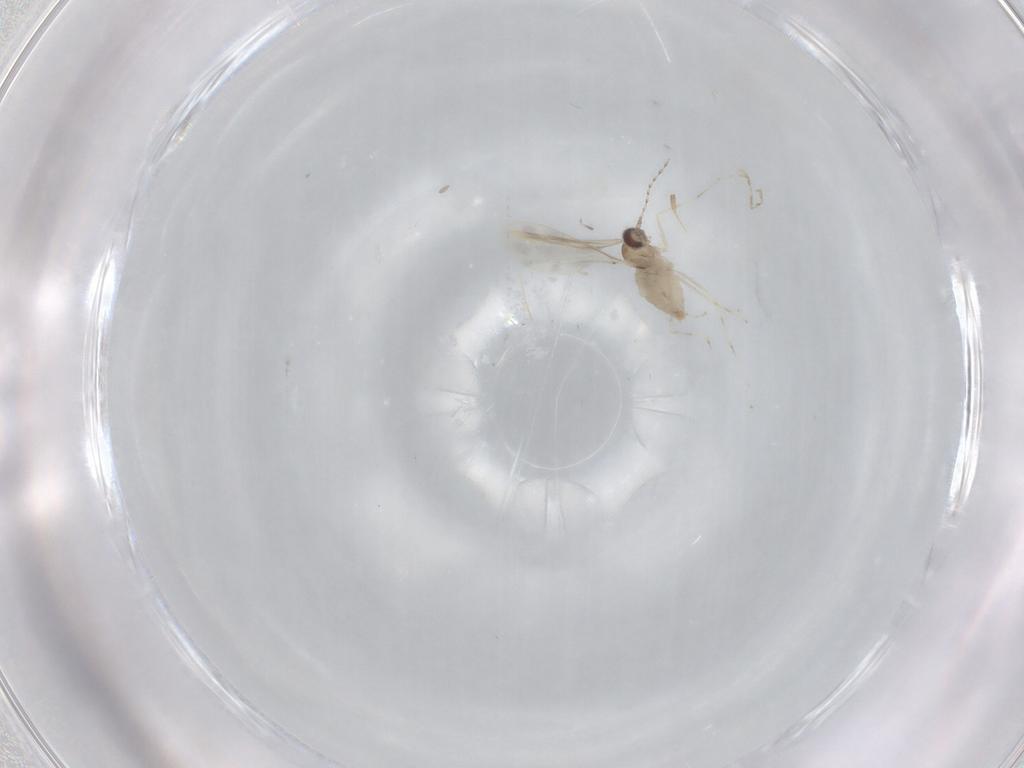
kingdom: Animalia
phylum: Arthropoda
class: Insecta
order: Diptera
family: Cecidomyiidae
